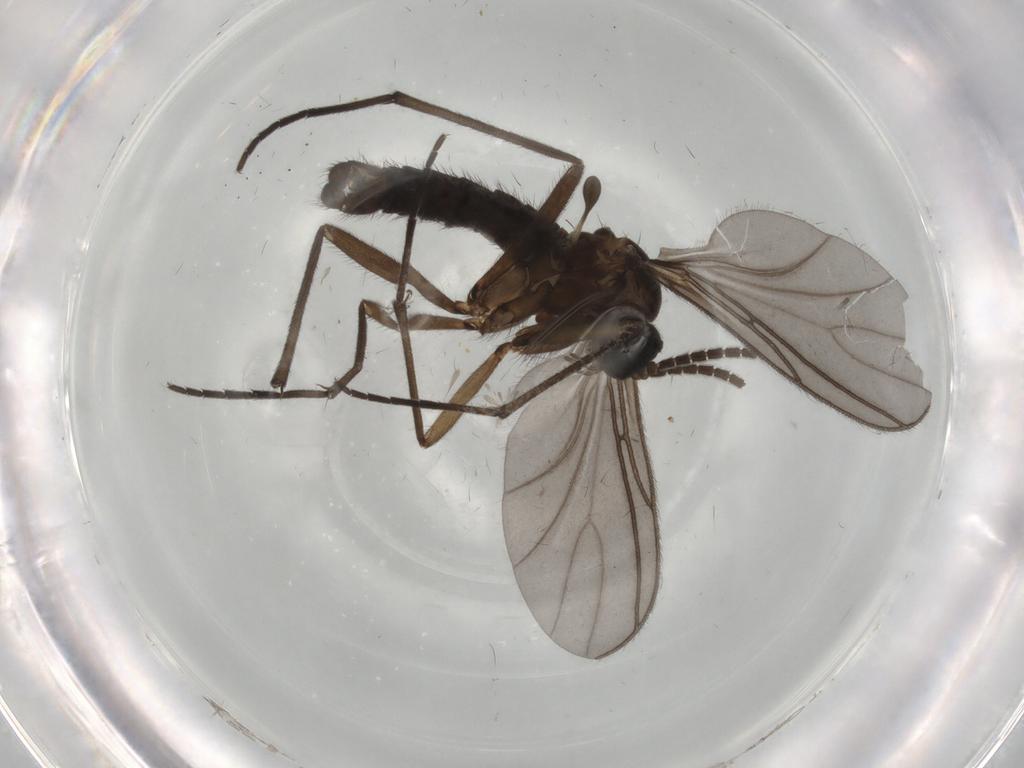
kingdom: Animalia
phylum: Arthropoda
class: Insecta
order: Diptera
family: Sciaridae
